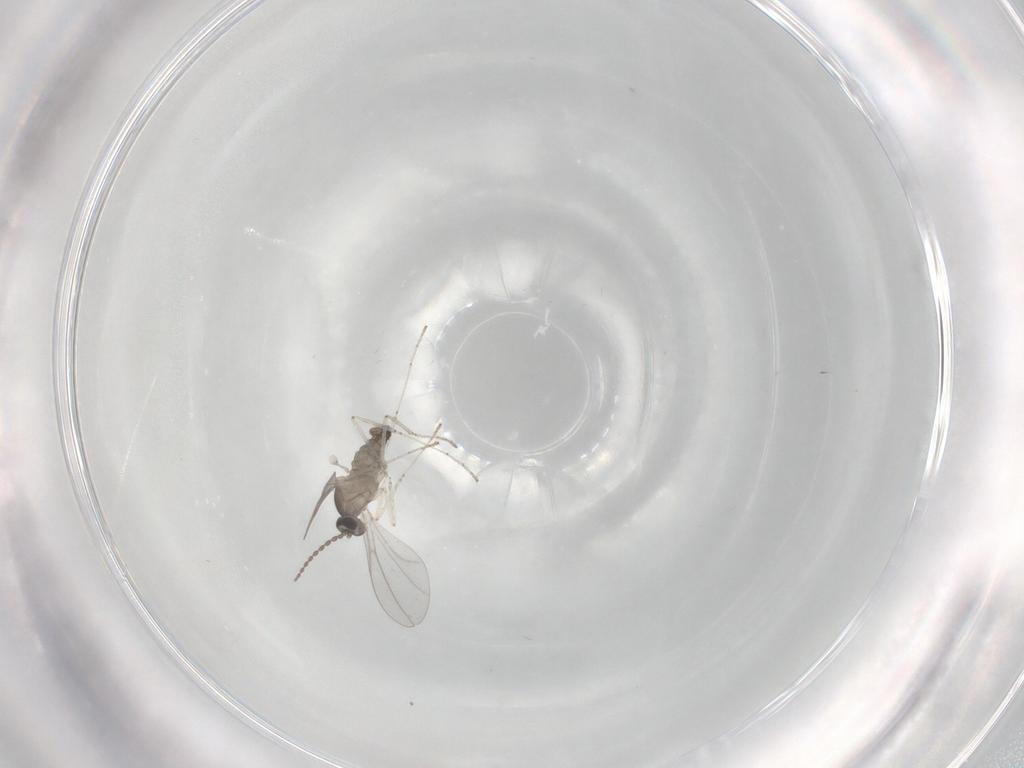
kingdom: Animalia
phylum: Arthropoda
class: Insecta
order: Diptera
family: Cecidomyiidae
